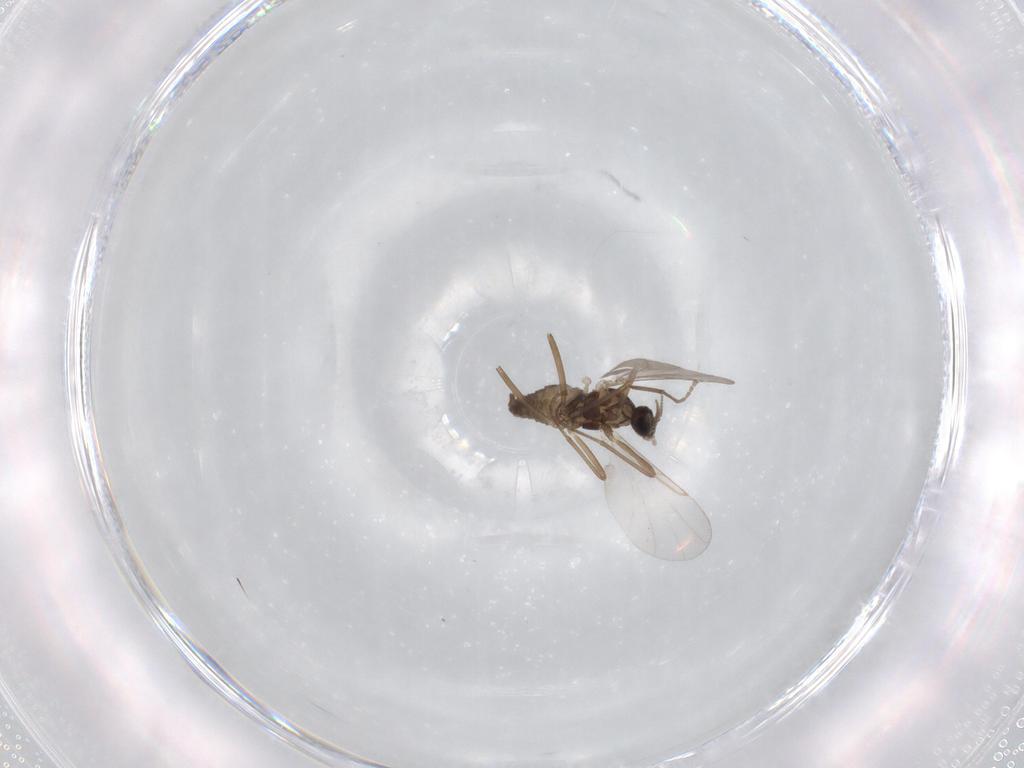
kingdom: Animalia
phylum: Arthropoda
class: Insecta
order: Diptera
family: Cecidomyiidae
